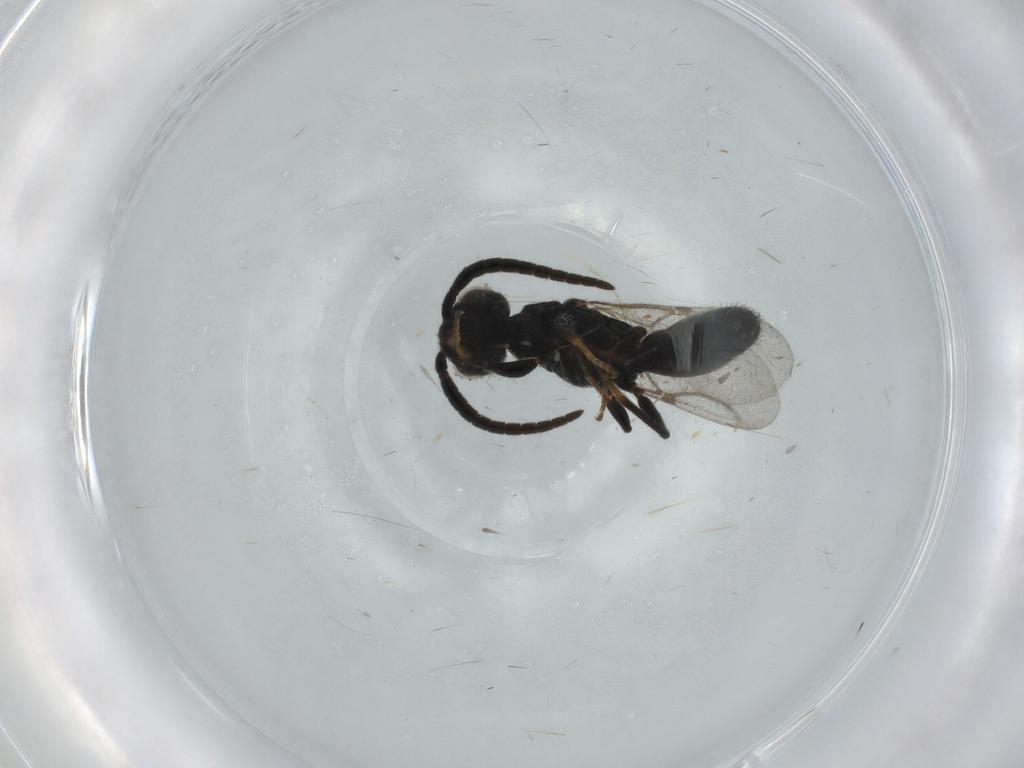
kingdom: Animalia
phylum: Arthropoda
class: Insecta
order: Hymenoptera
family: Bethylidae
